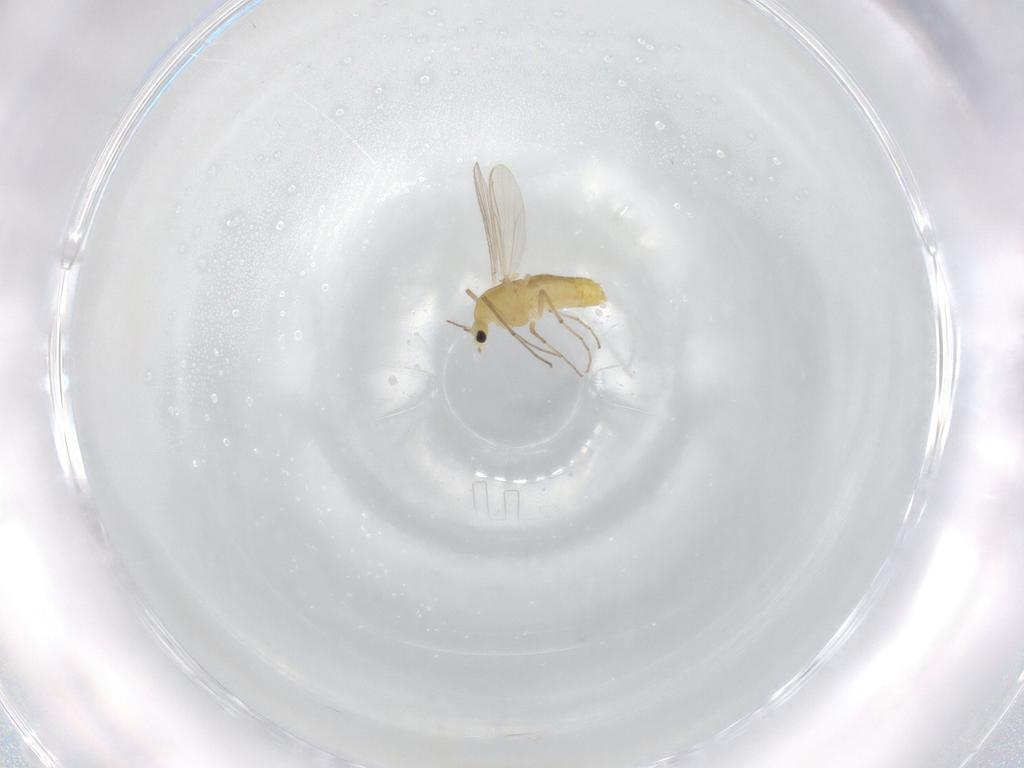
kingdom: Animalia
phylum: Arthropoda
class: Insecta
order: Diptera
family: Chironomidae
